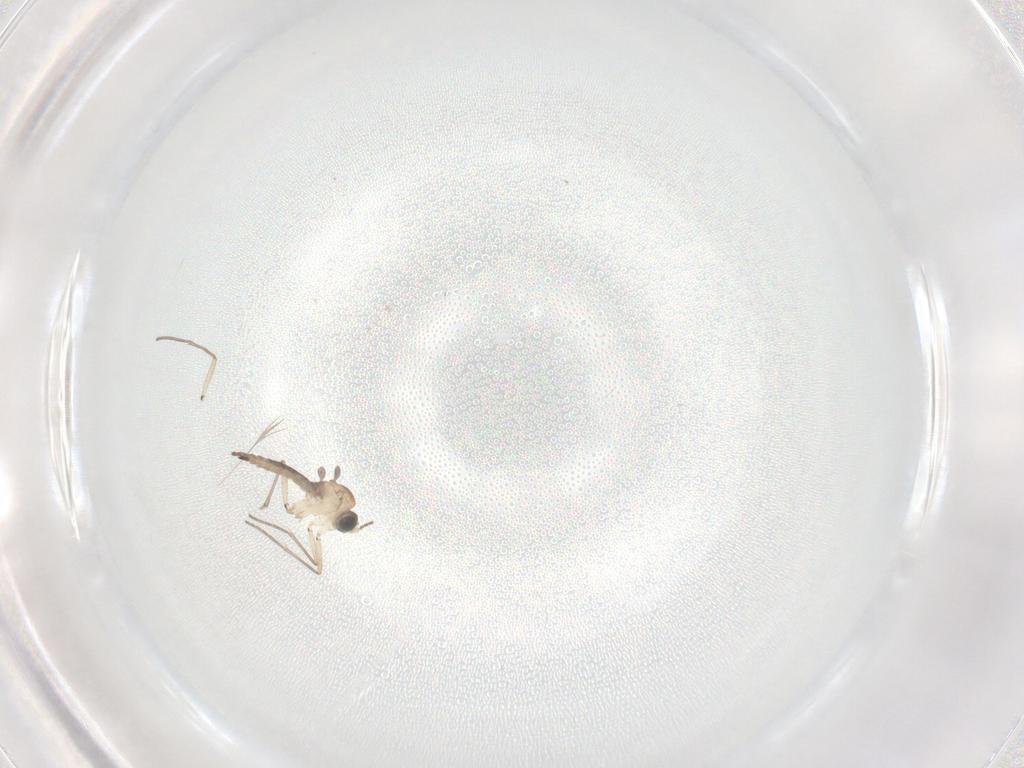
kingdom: Animalia
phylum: Arthropoda
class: Insecta
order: Diptera
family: Sciaridae
